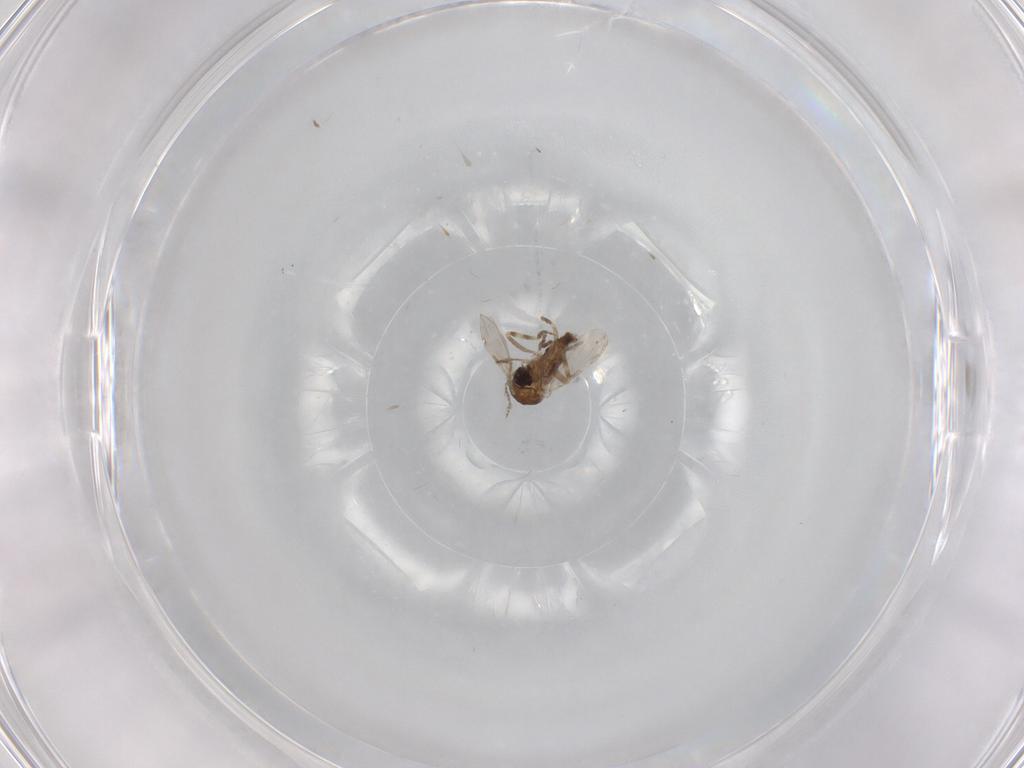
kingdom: Animalia
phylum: Arthropoda
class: Insecta
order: Diptera
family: Ceratopogonidae
